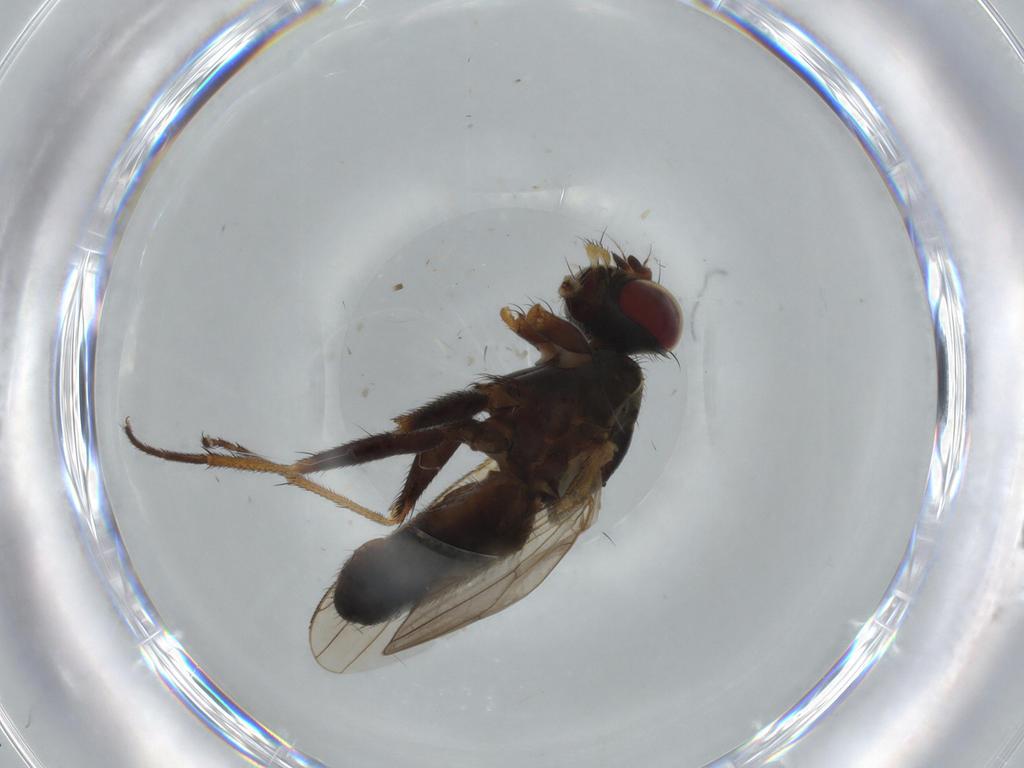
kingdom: Animalia
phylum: Arthropoda
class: Insecta
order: Diptera
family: Muscidae
